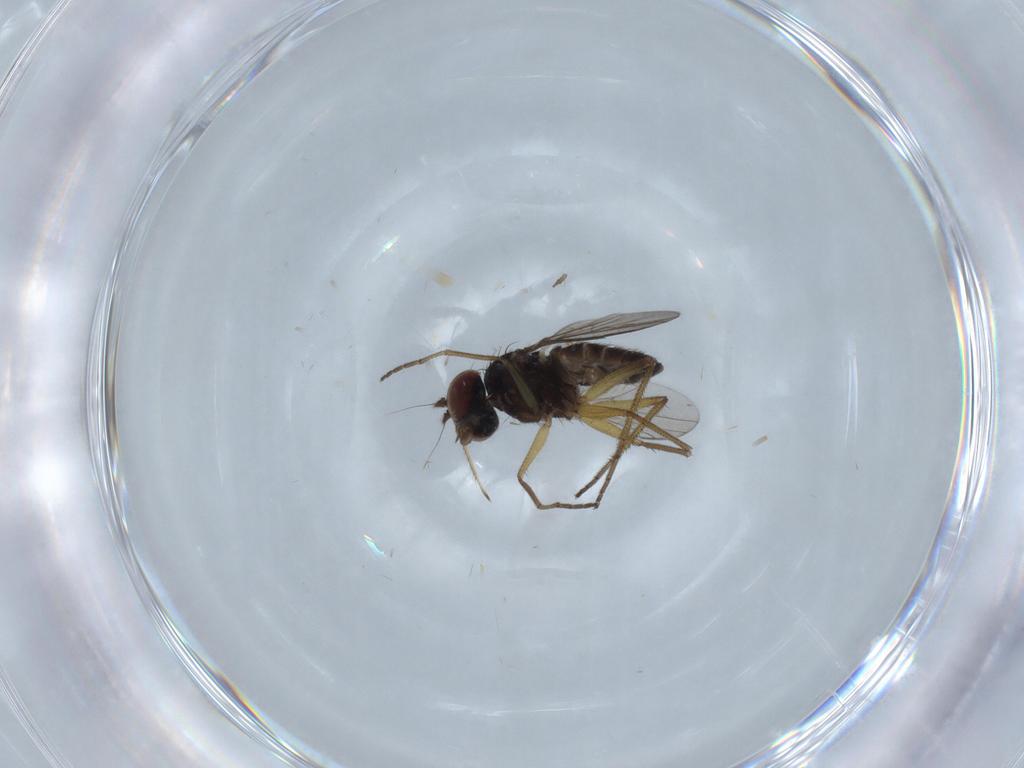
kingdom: Animalia
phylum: Arthropoda
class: Insecta
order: Diptera
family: Dolichopodidae
